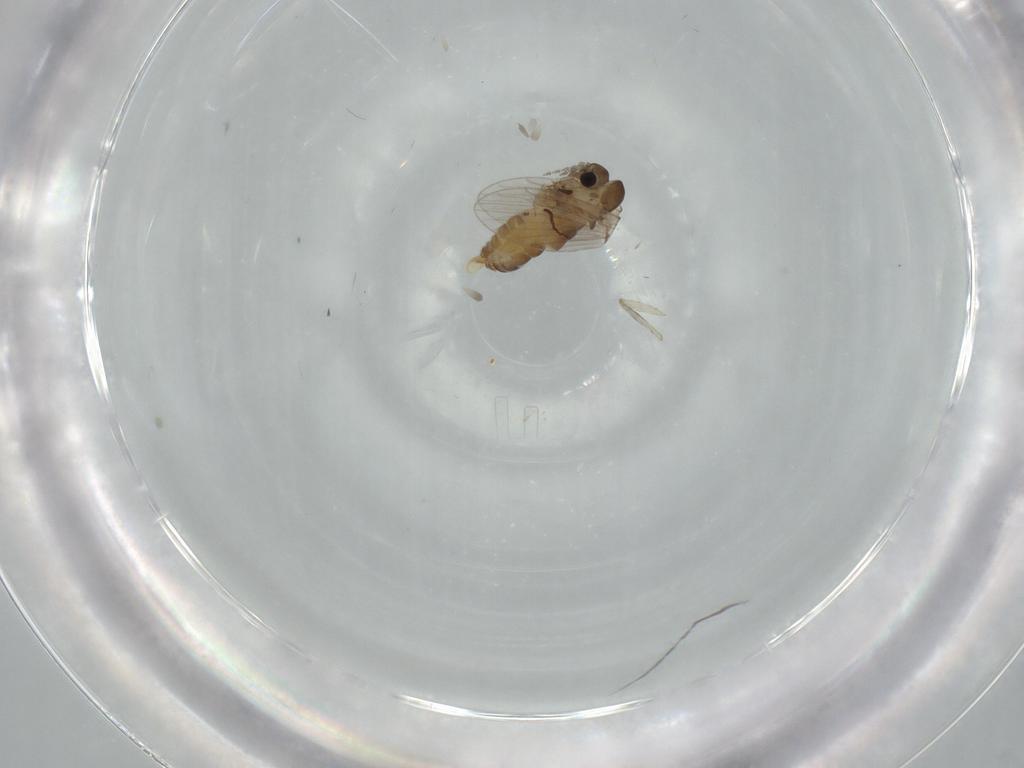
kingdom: Animalia
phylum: Arthropoda
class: Insecta
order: Diptera
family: Psychodidae
